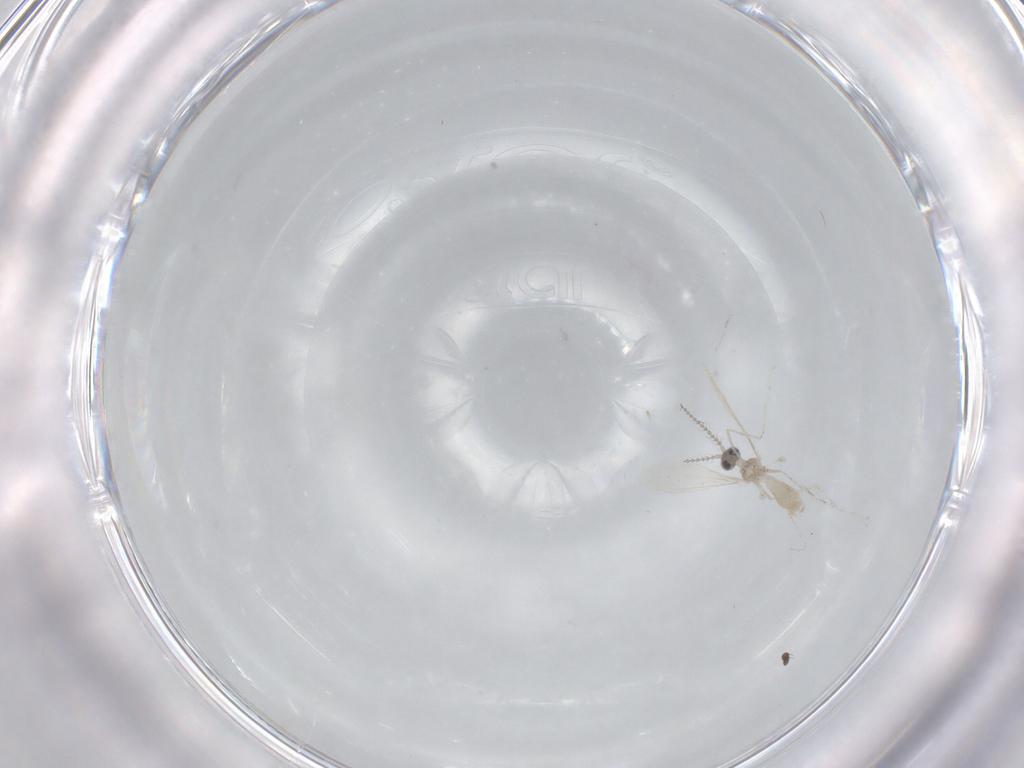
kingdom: Animalia
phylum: Arthropoda
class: Insecta
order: Diptera
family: Cecidomyiidae
